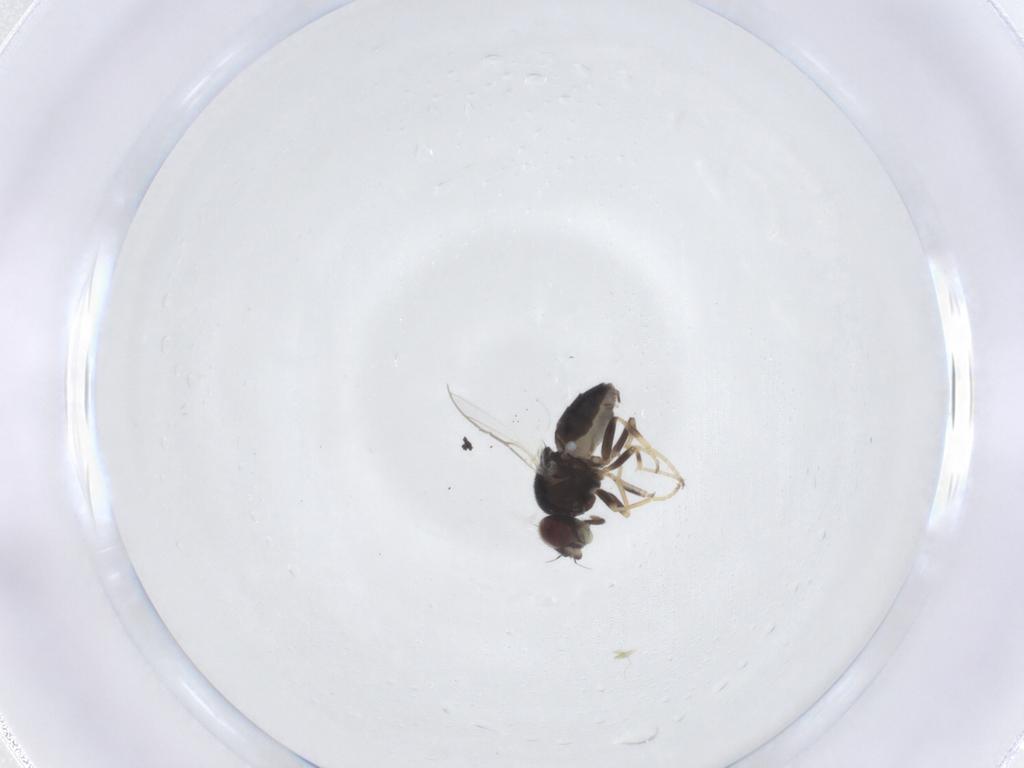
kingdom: Animalia
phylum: Arthropoda
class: Insecta
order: Diptera
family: Chloropidae
